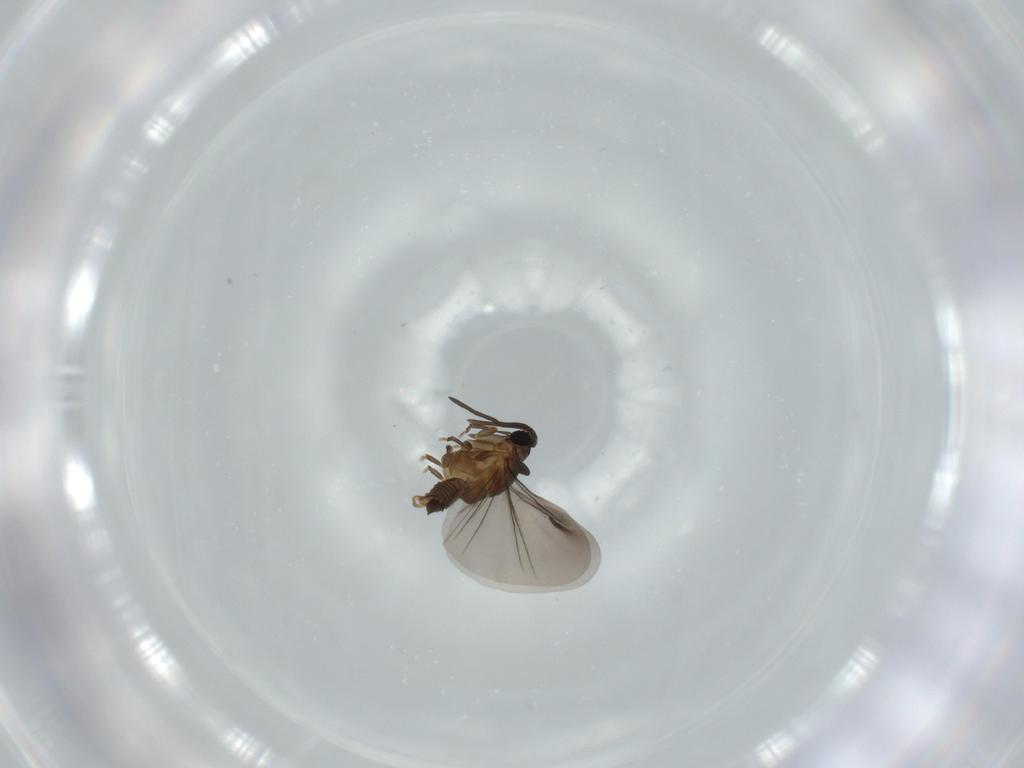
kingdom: Animalia
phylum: Arthropoda
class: Insecta
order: Strepsiptera
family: Myrmecolacidae
